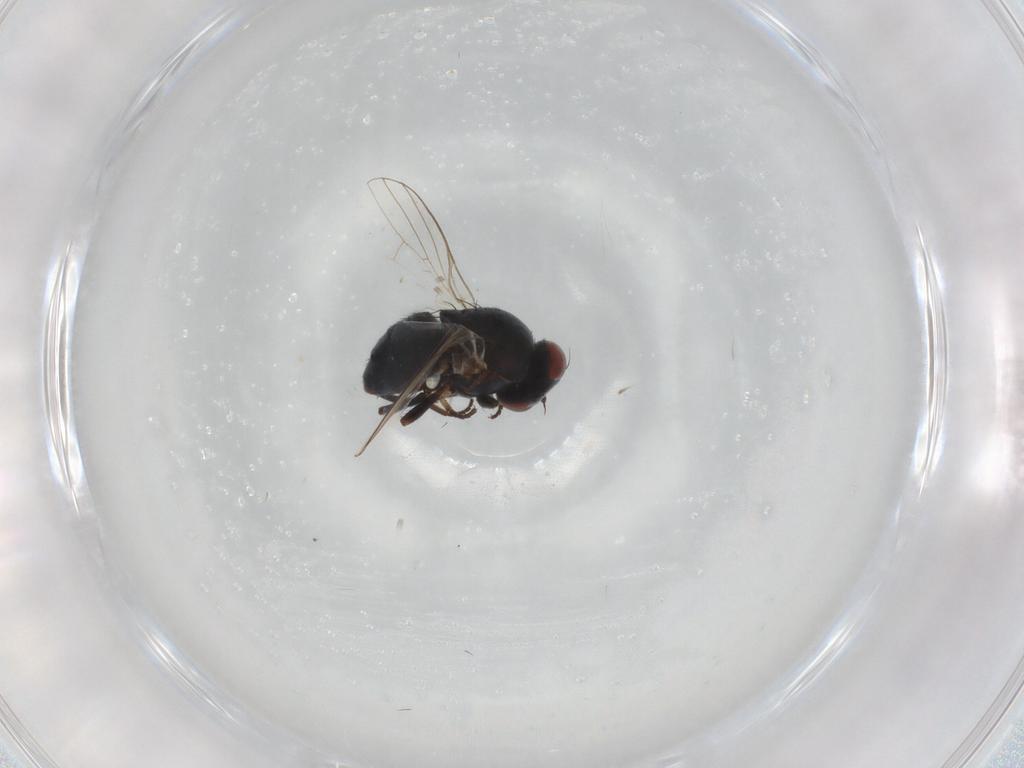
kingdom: Animalia
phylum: Arthropoda
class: Insecta
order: Diptera
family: Chamaemyiidae
